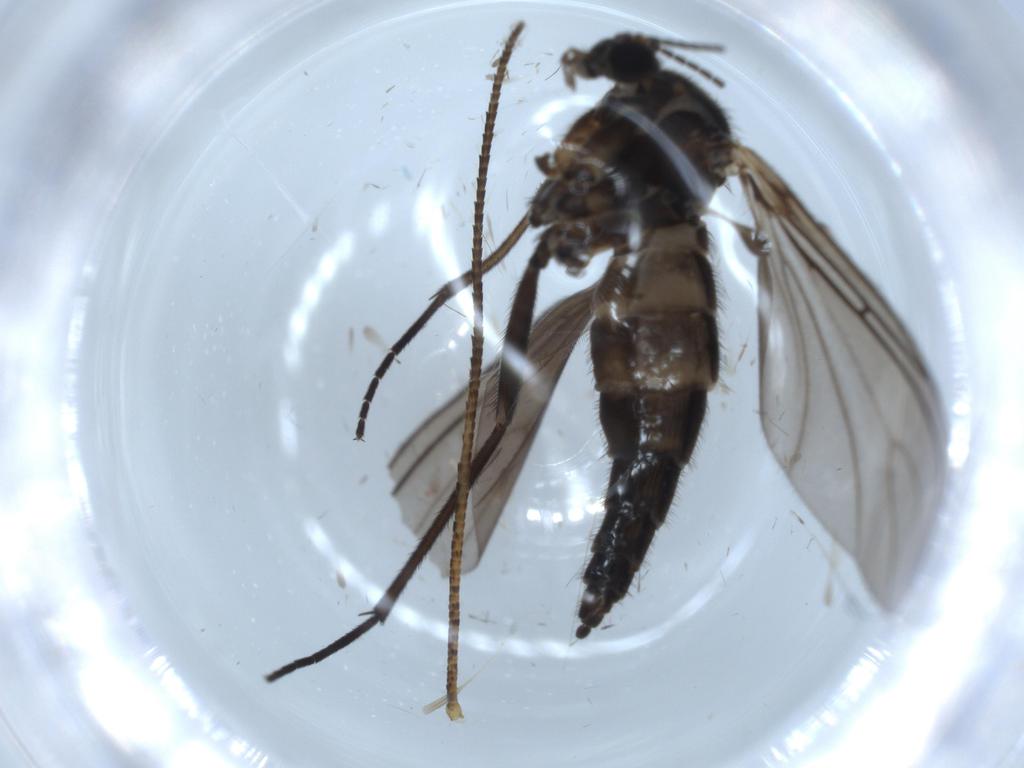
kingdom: Animalia
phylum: Arthropoda
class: Insecta
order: Diptera
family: Sciaridae
